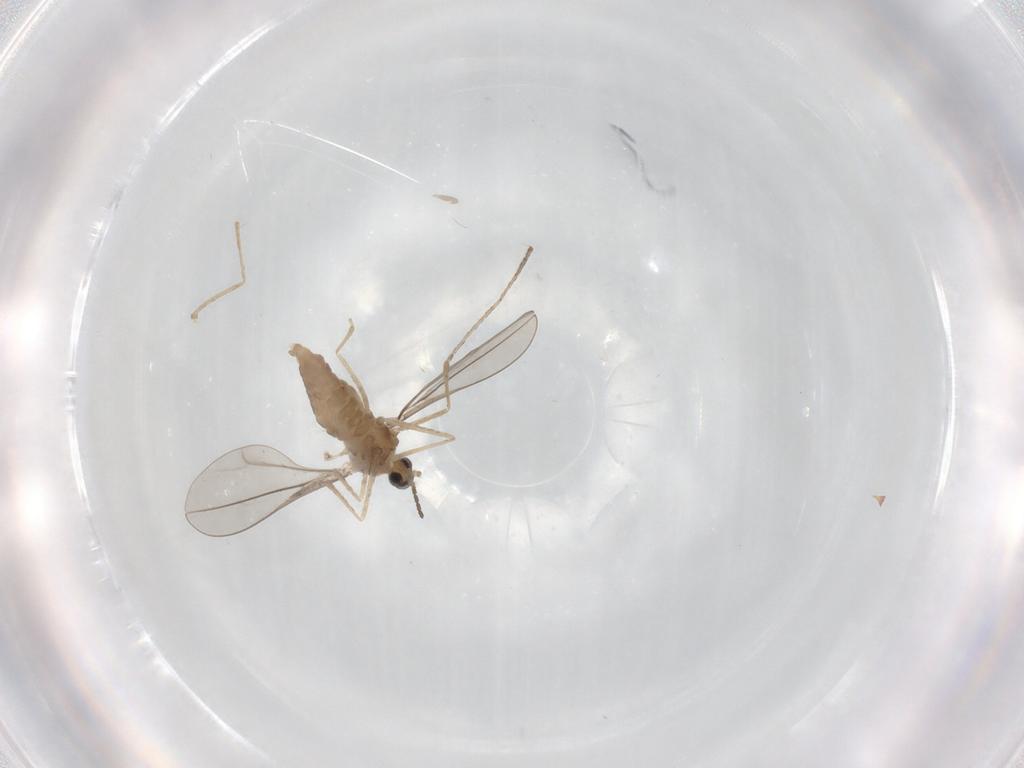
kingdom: Animalia
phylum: Arthropoda
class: Insecta
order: Diptera
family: Cecidomyiidae
